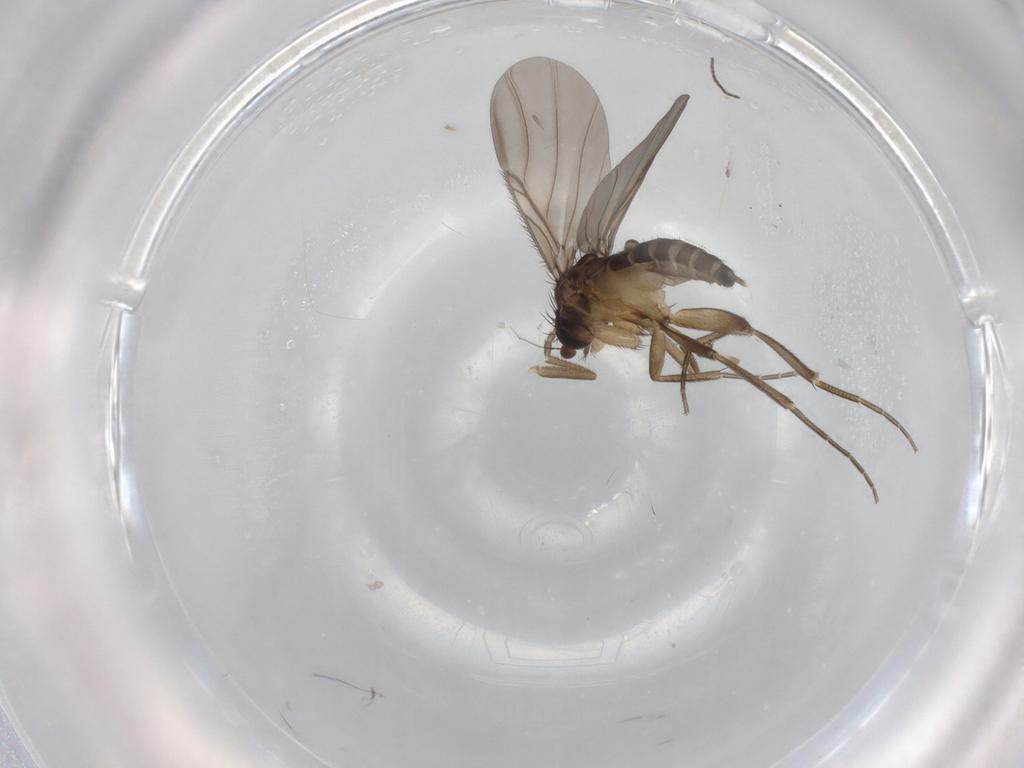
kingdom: Animalia
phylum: Arthropoda
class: Insecta
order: Diptera
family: Phoridae
